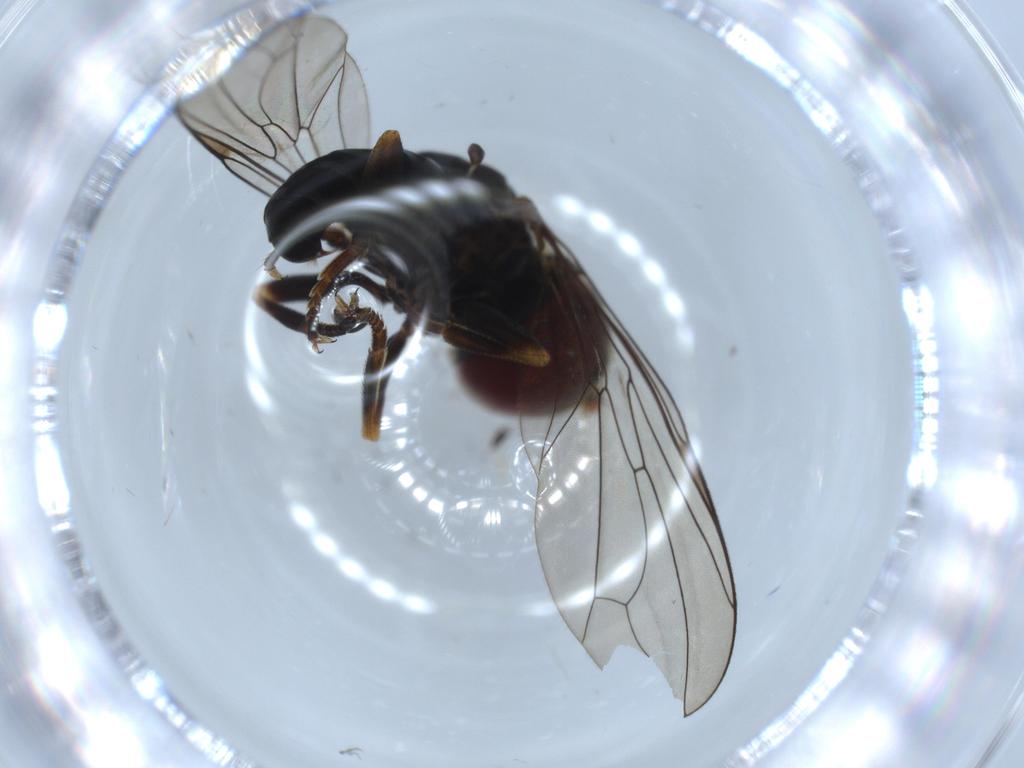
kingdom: Animalia
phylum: Arthropoda
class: Insecta
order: Diptera
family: Pipunculidae
